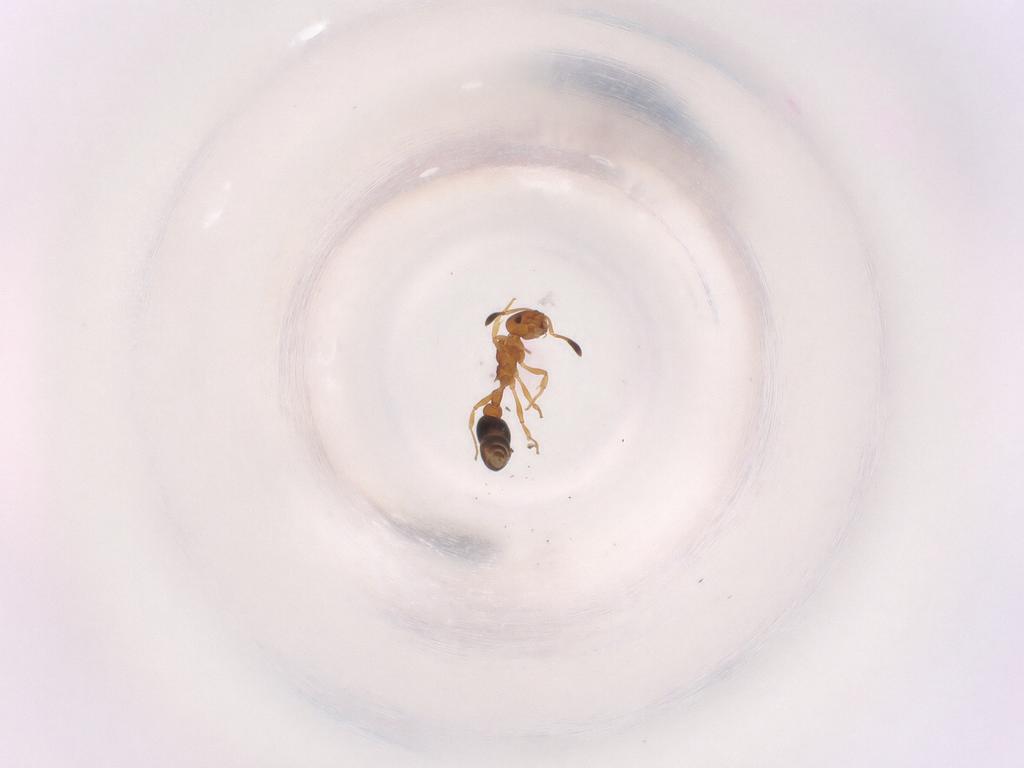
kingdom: Animalia
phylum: Arthropoda
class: Insecta
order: Hymenoptera
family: Formicidae
